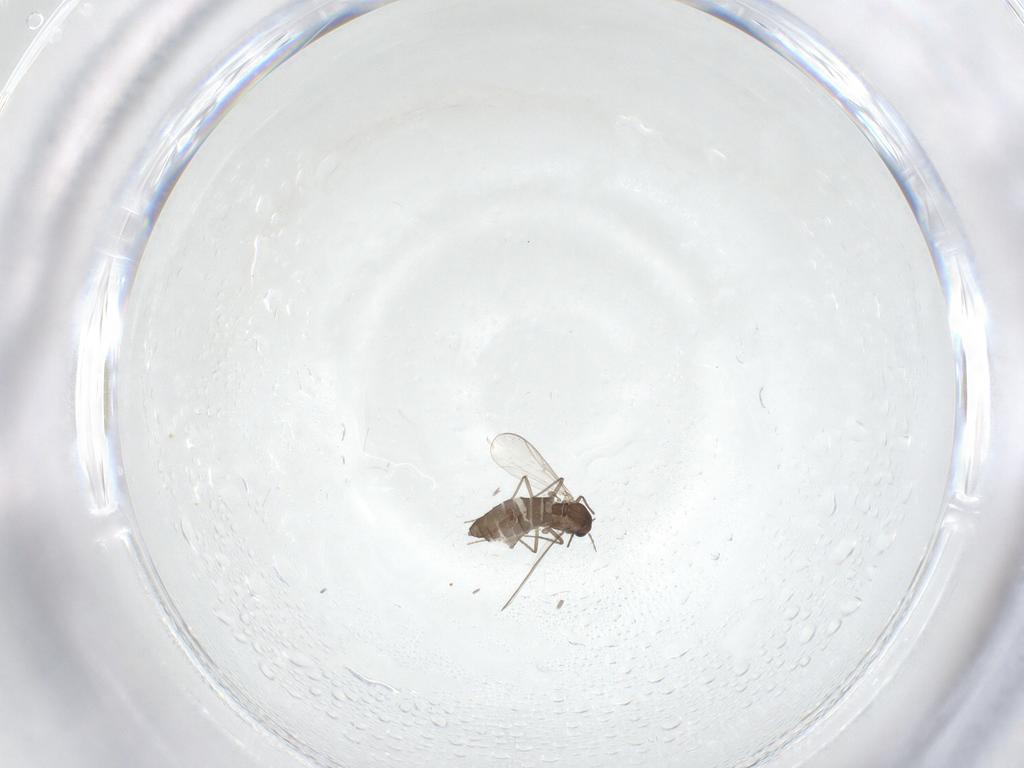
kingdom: Animalia
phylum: Arthropoda
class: Insecta
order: Diptera
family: Chironomidae
